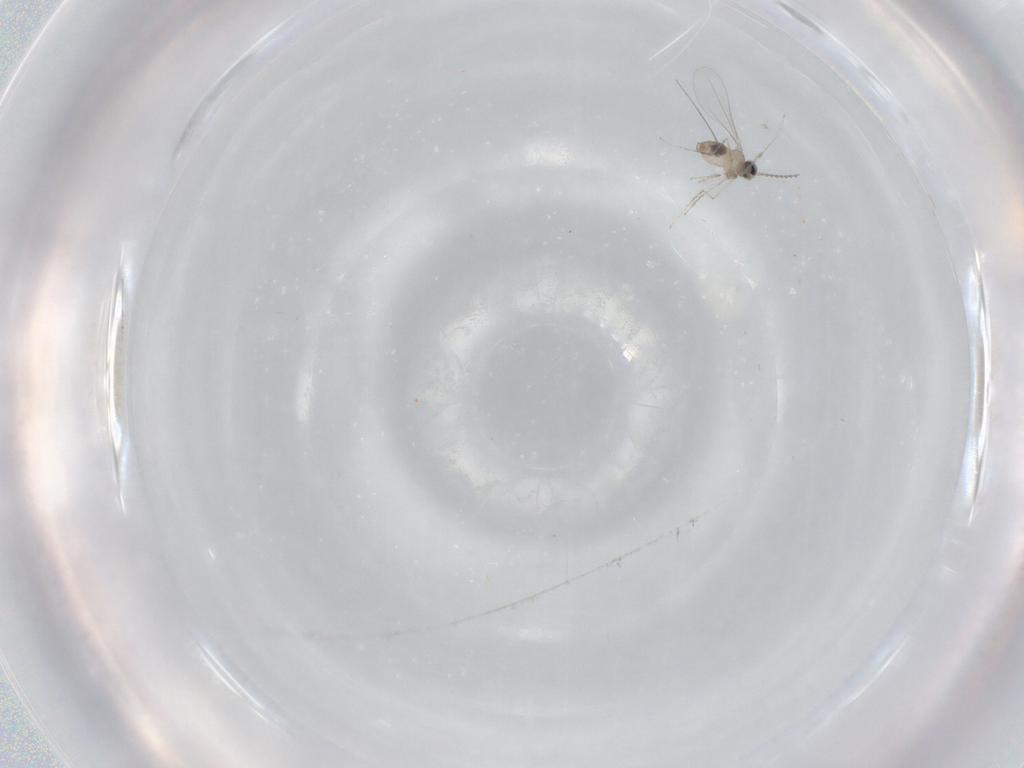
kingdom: Animalia
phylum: Arthropoda
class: Insecta
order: Diptera
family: Cecidomyiidae
